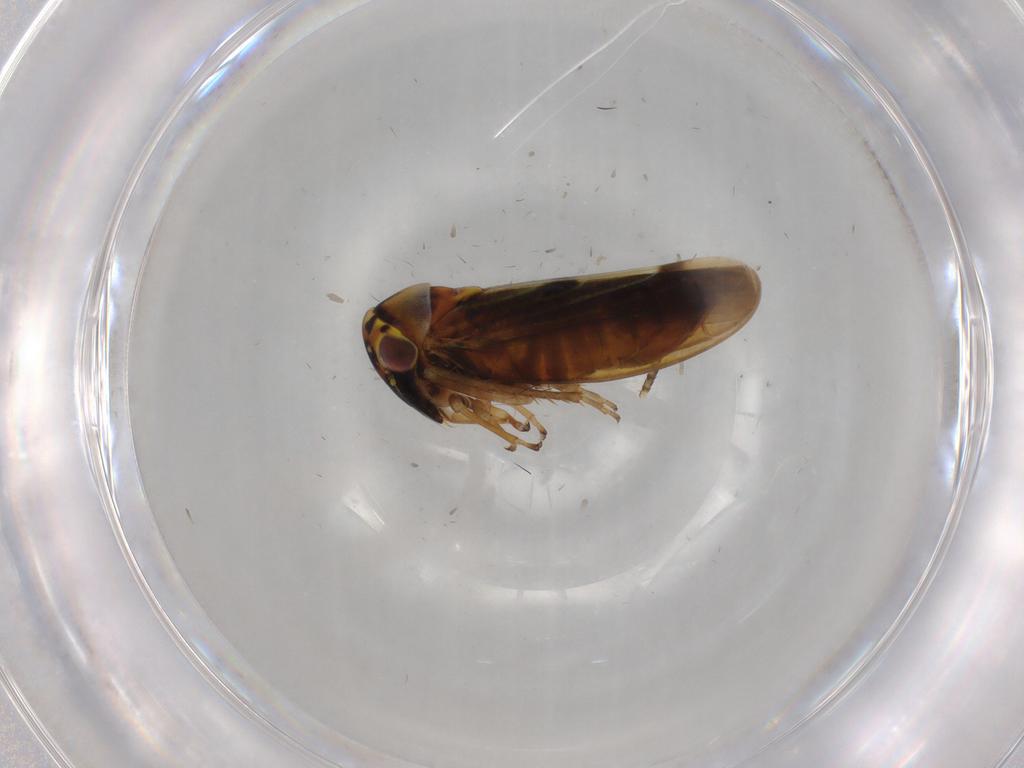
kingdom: Animalia
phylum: Arthropoda
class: Insecta
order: Hemiptera
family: Cicadellidae
